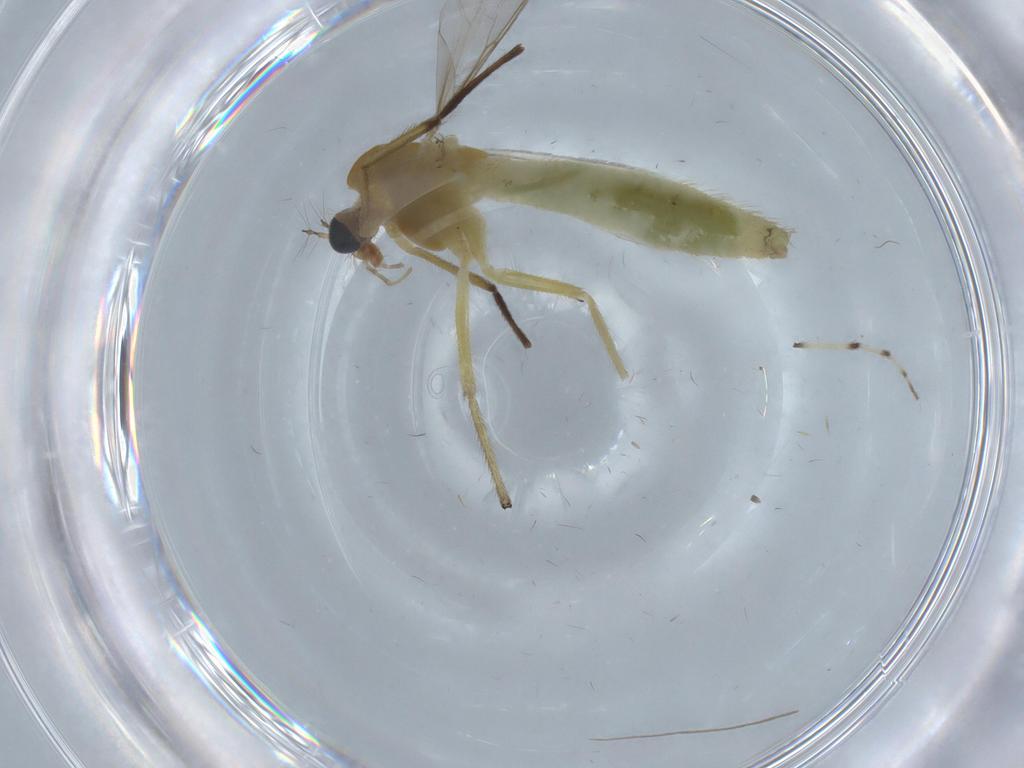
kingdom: Animalia
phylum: Arthropoda
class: Insecta
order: Diptera
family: Chironomidae
